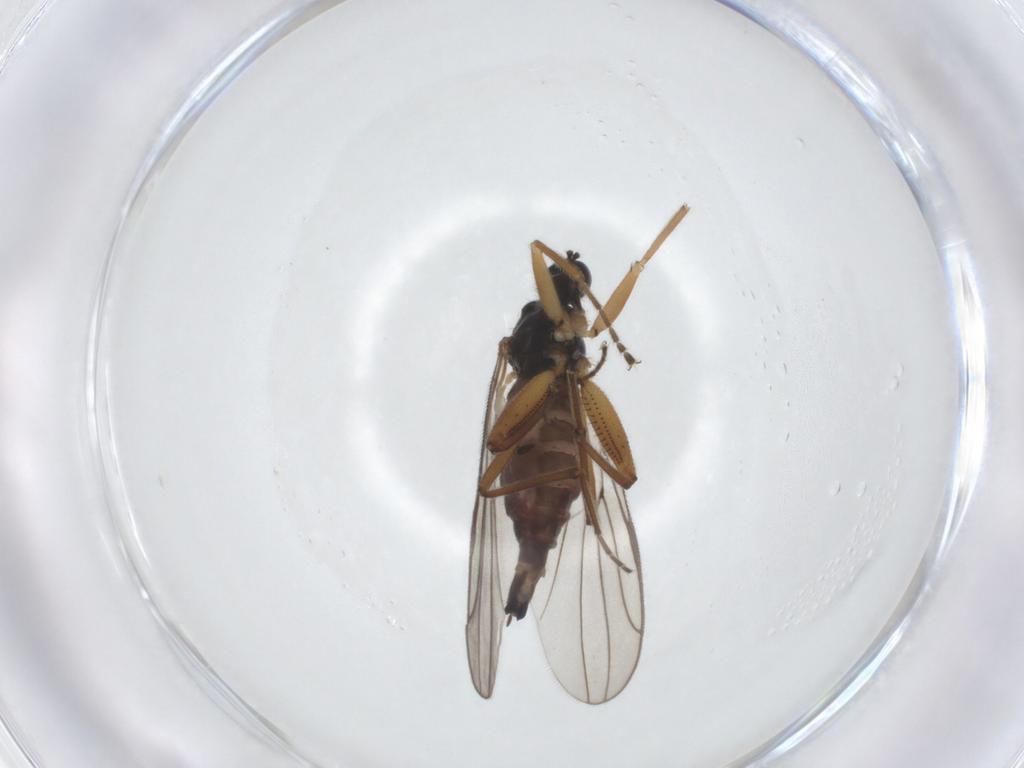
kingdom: Animalia
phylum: Arthropoda
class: Insecta
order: Diptera
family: Hybotidae
